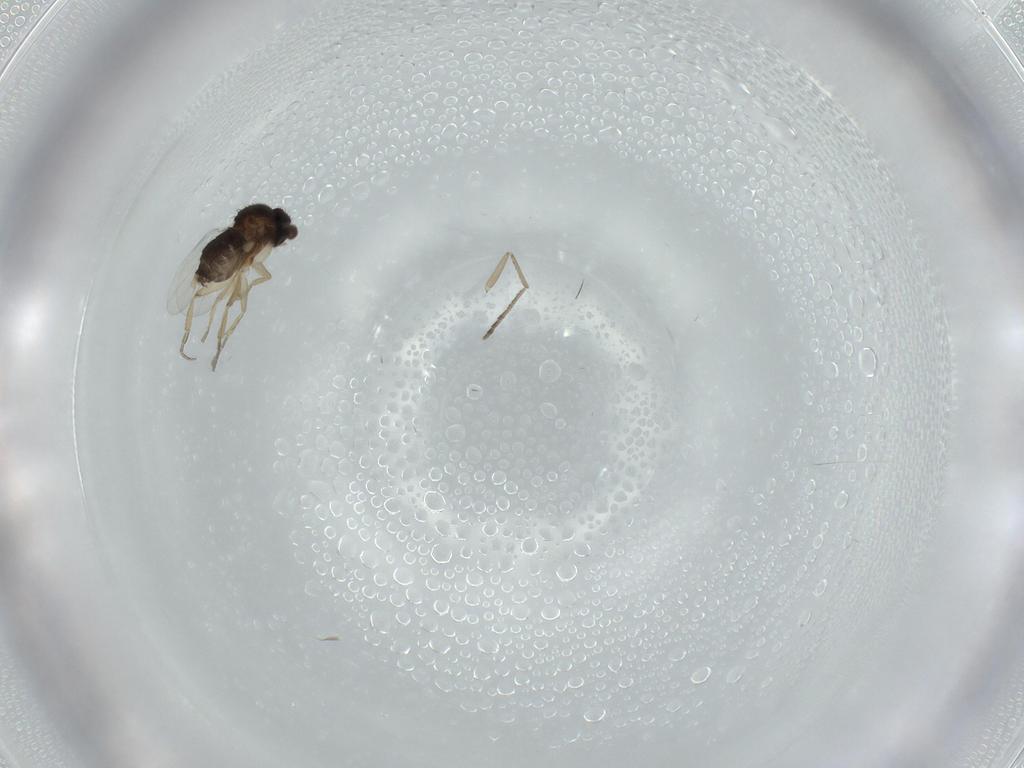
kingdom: Animalia
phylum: Arthropoda
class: Insecta
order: Diptera
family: Phoridae
